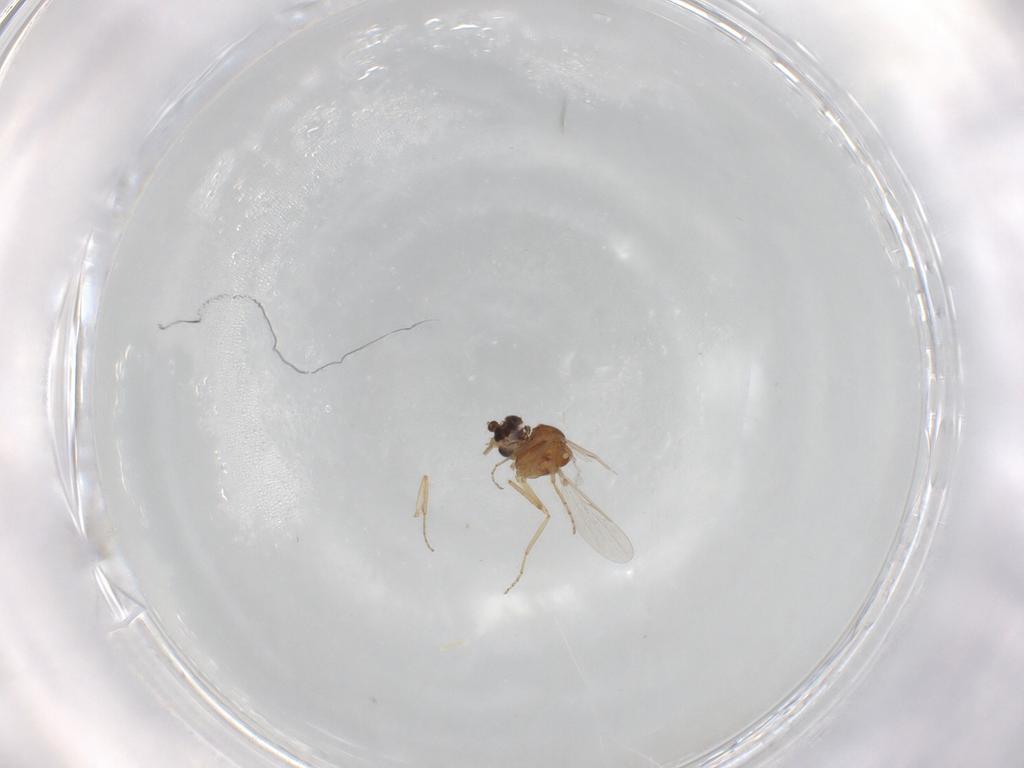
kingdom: Animalia
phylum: Arthropoda
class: Insecta
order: Diptera
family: Ceratopogonidae
